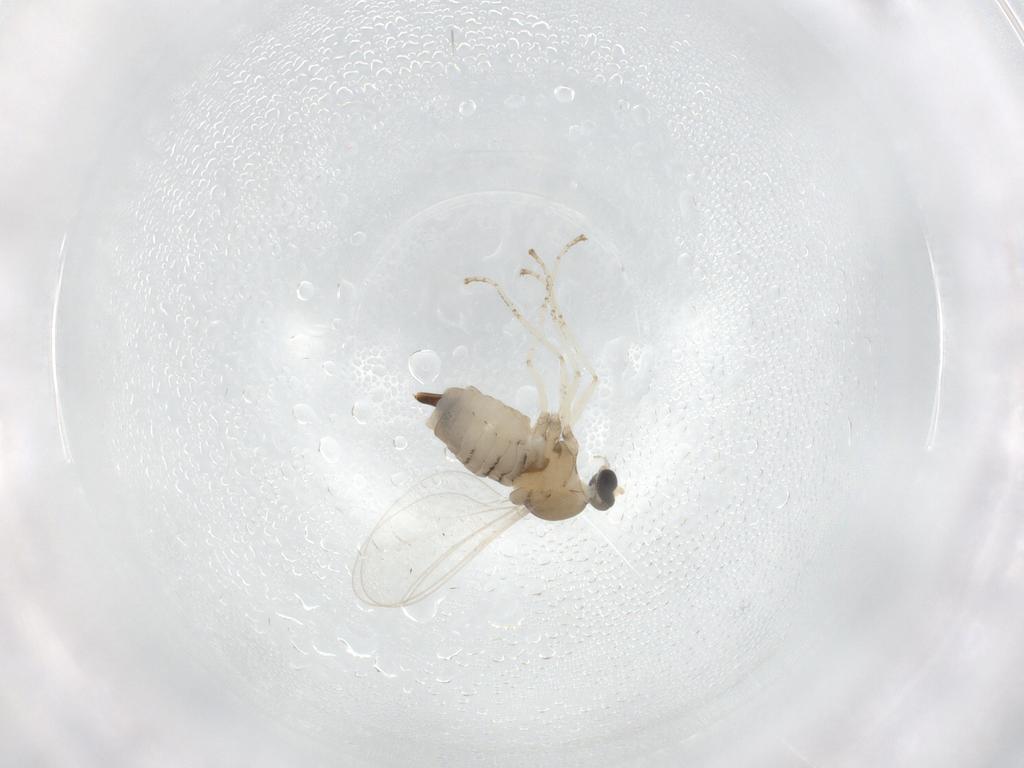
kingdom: Animalia
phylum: Arthropoda
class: Insecta
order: Diptera
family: Cecidomyiidae
